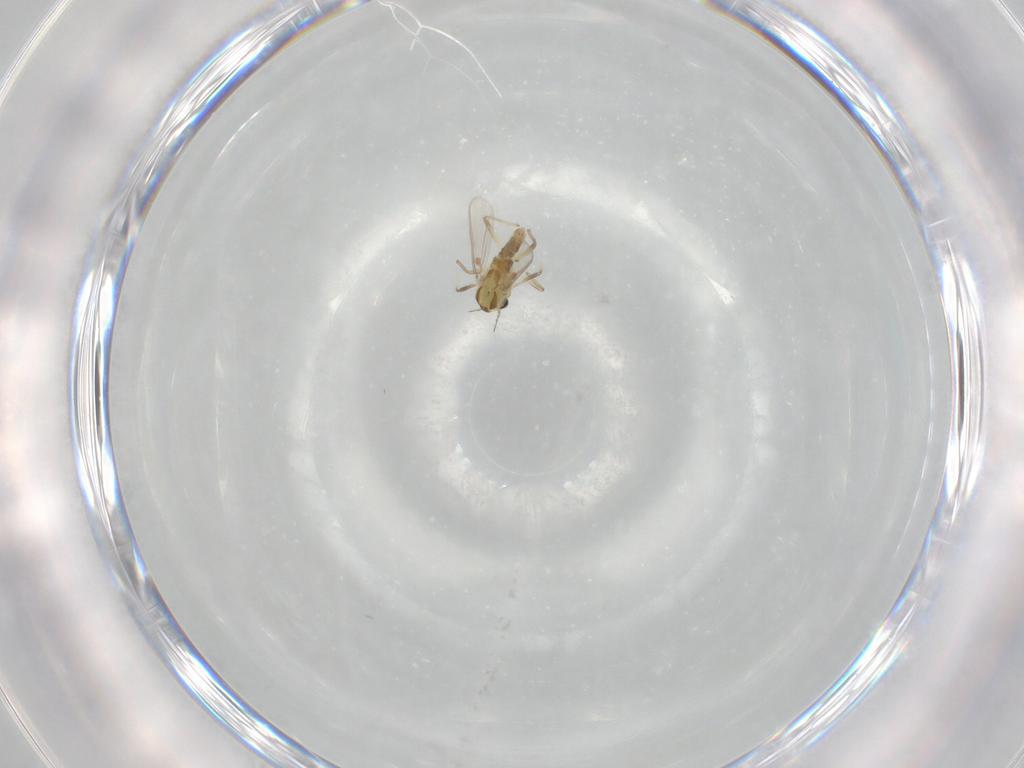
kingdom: Animalia
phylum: Arthropoda
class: Insecta
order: Diptera
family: Chironomidae
